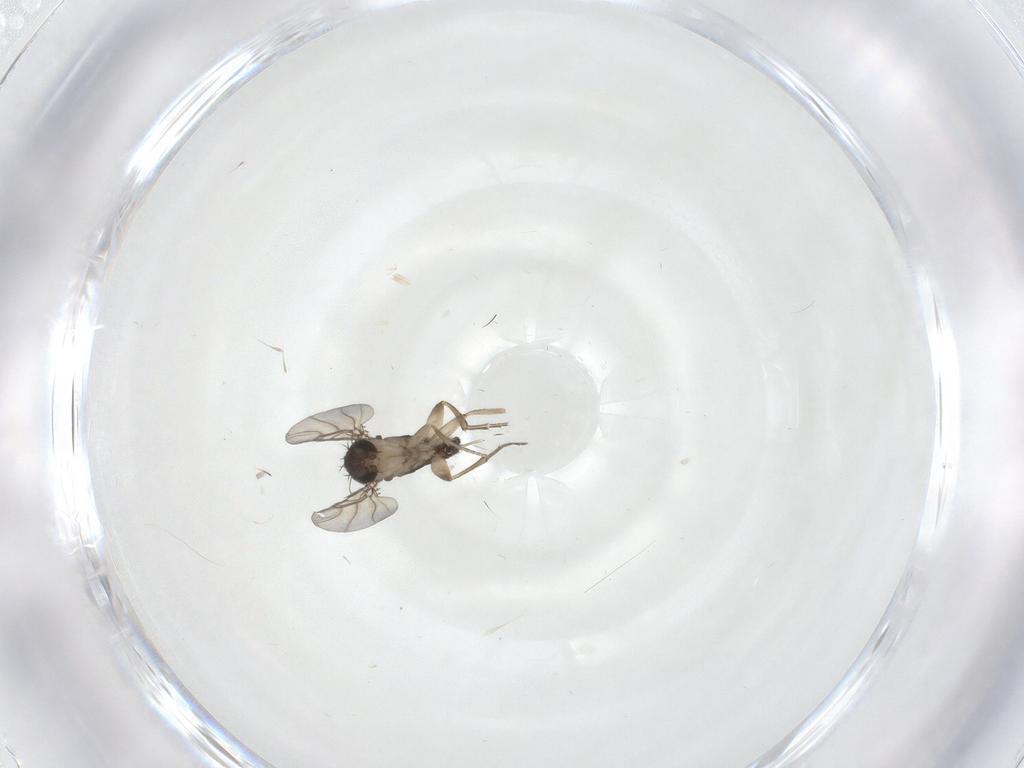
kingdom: Animalia
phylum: Arthropoda
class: Insecta
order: Diptera
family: Phoridae
